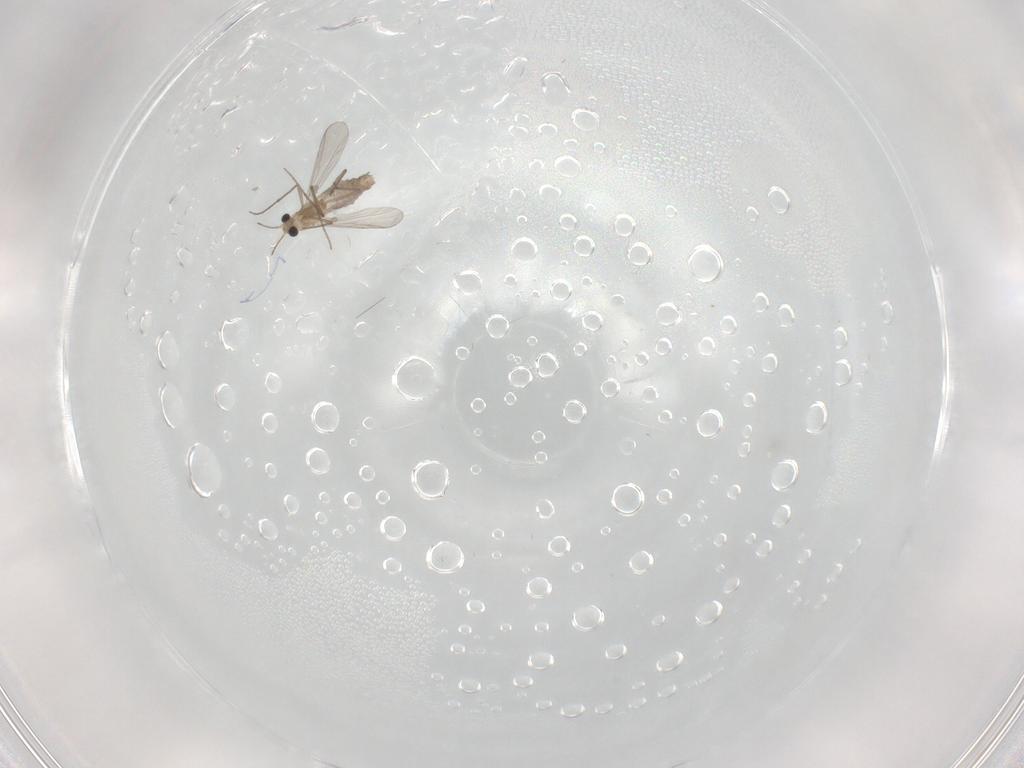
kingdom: Animalia
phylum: Arthropoda
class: Insecta
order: Diptera
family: Chironomidae
